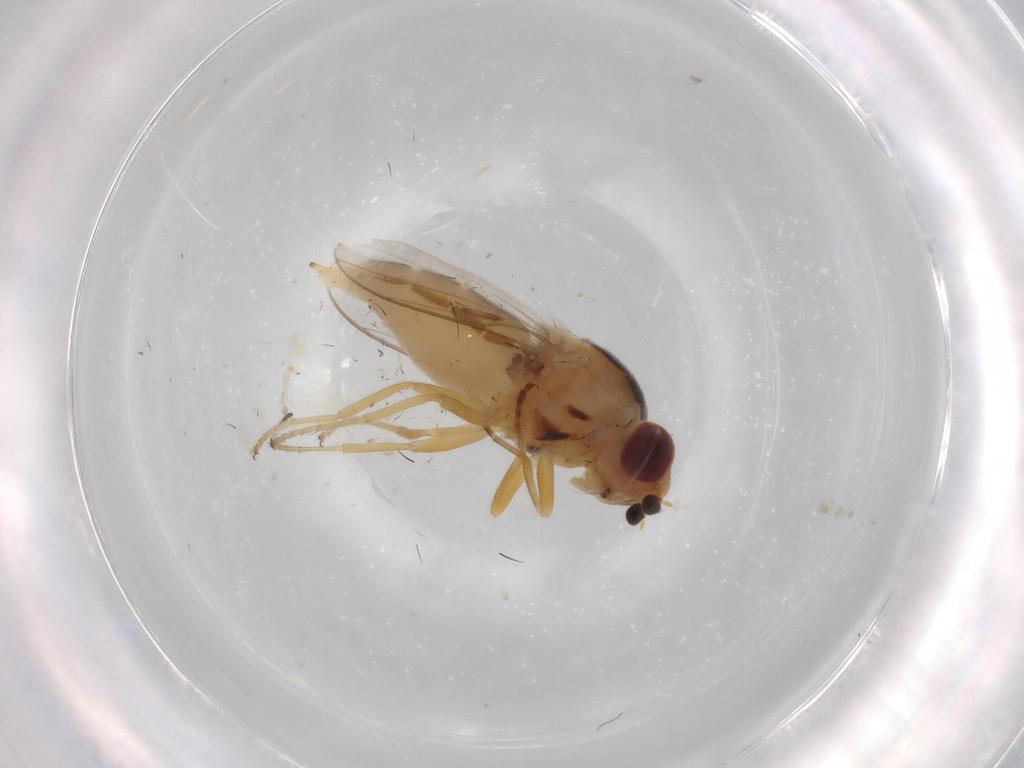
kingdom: Animalia
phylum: Arthropoda
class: Insecta
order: Diptera
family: Chloropidae
